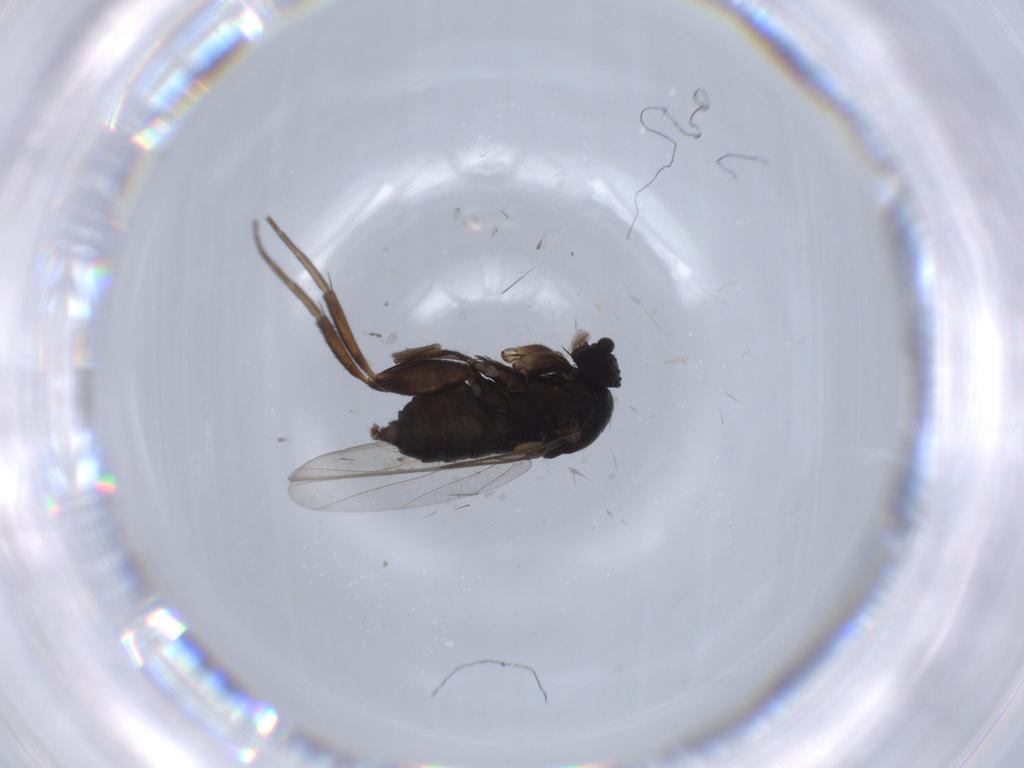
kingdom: Animalia
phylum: Arthropoda
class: Insecta
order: Diptera
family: Phoridae
